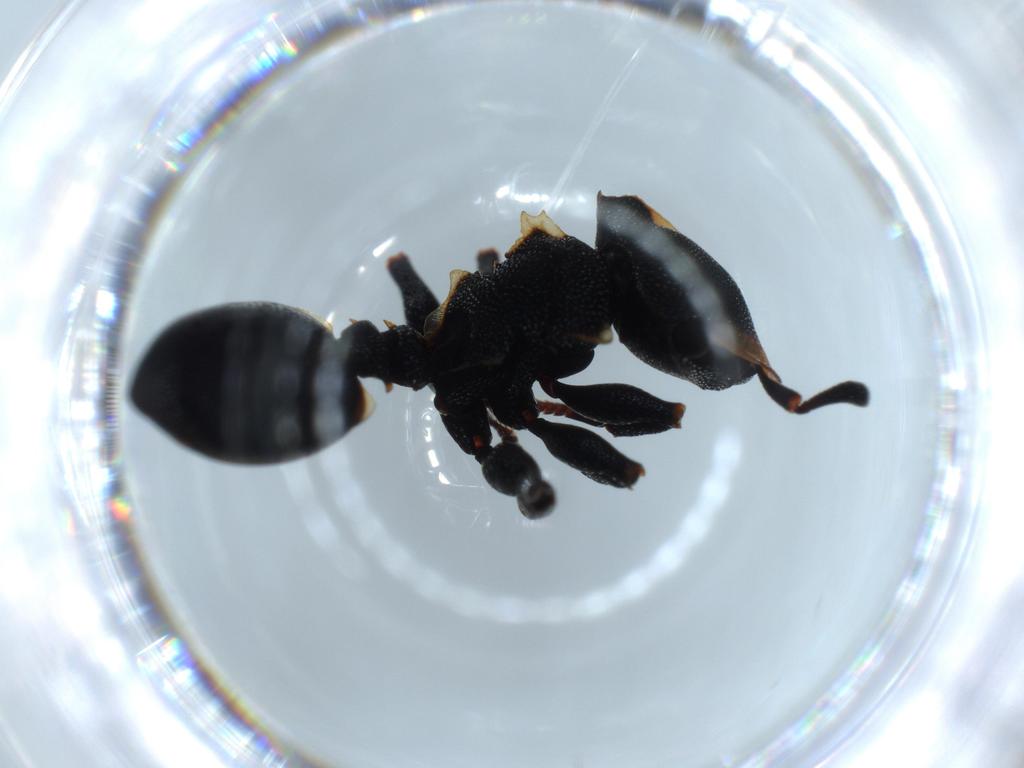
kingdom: Animalia
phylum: Arthropoda
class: Insecta
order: Hymenoptera
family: Formicidae
